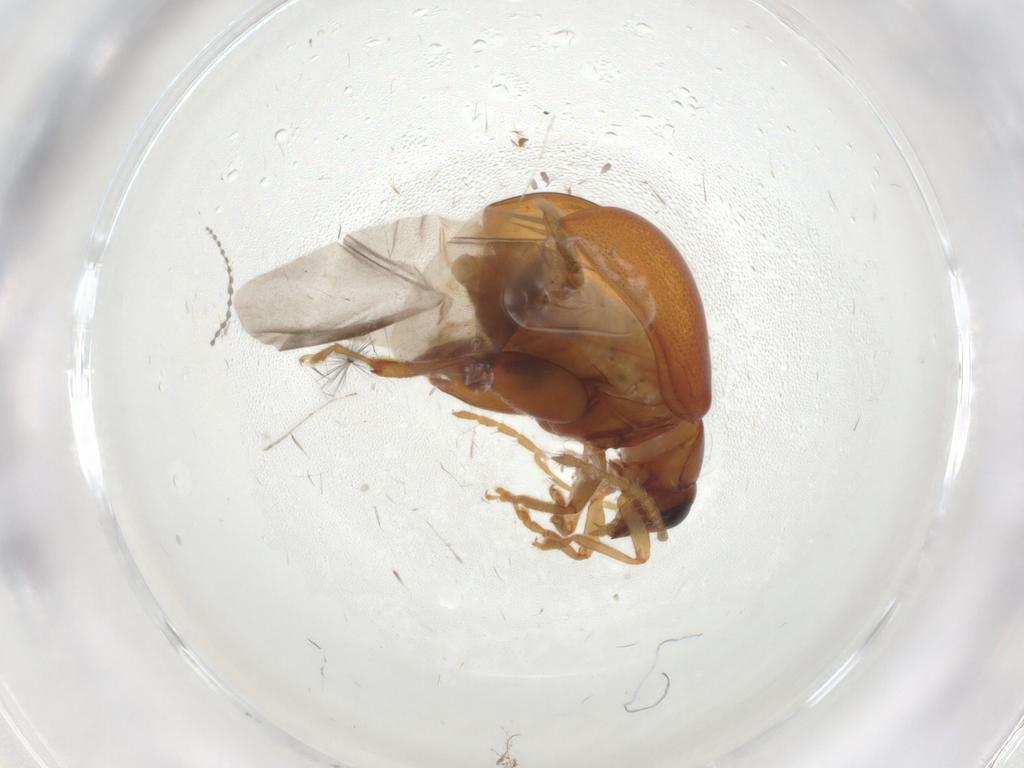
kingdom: Animalia
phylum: Arthropoda
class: Insecta
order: Coleoptera
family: Chrysomelidae
